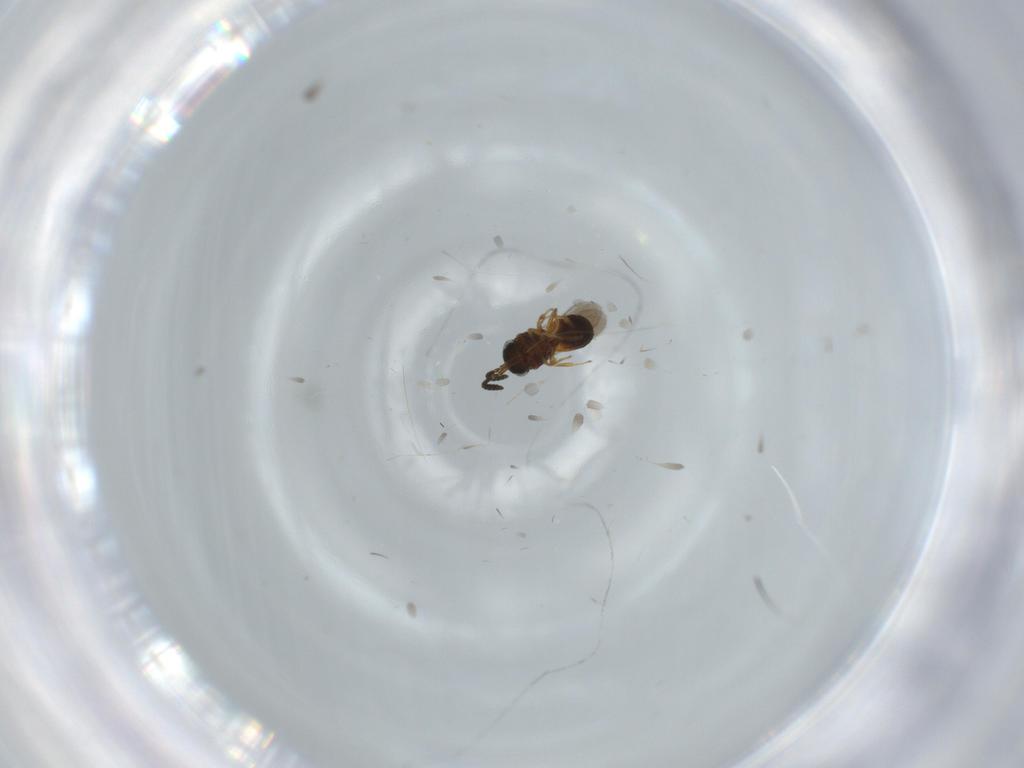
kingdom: Animalia
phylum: Arthropoda
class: Insecta
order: Hymenoptera
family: Scelionidae
